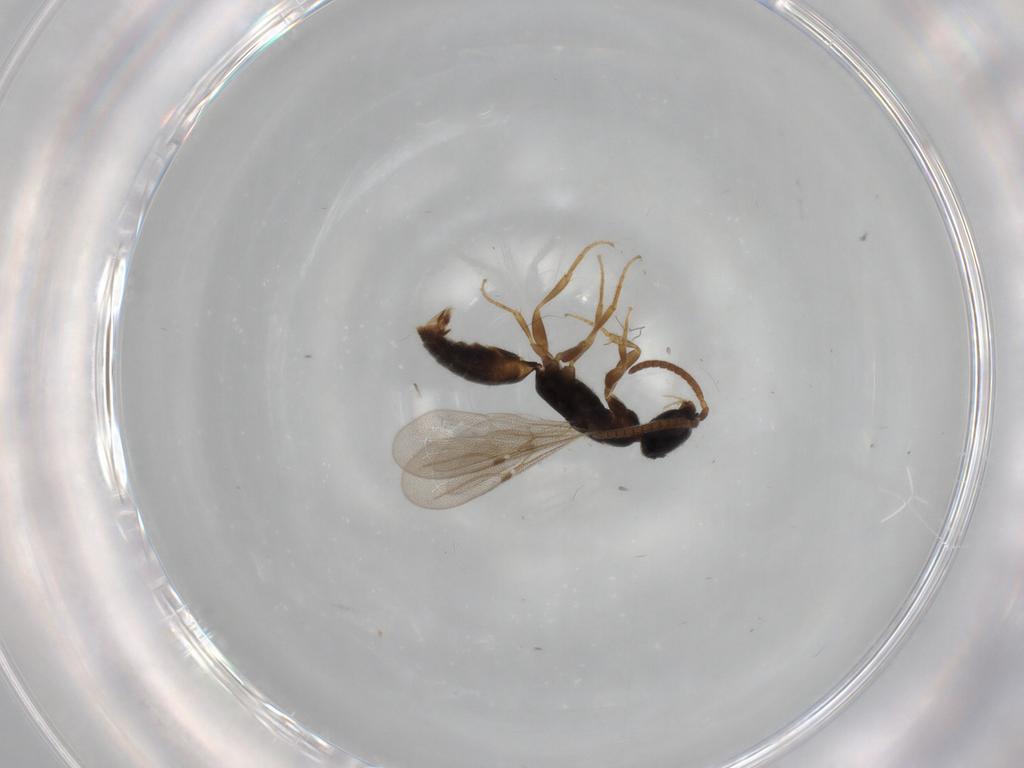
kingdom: Animalia
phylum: Arthropoda
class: Insecta
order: Hymenoptera
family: Bethylidae
